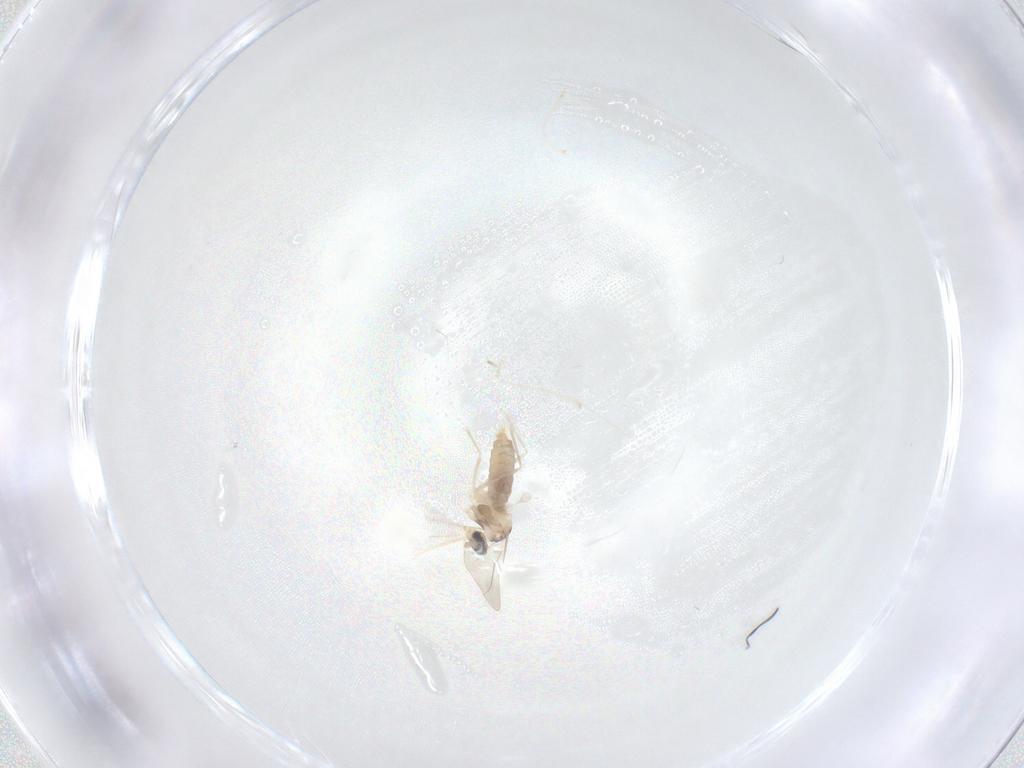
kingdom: Animalia
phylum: Arthropoda
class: Insecta
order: Diptera
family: Cecidomyiidae
